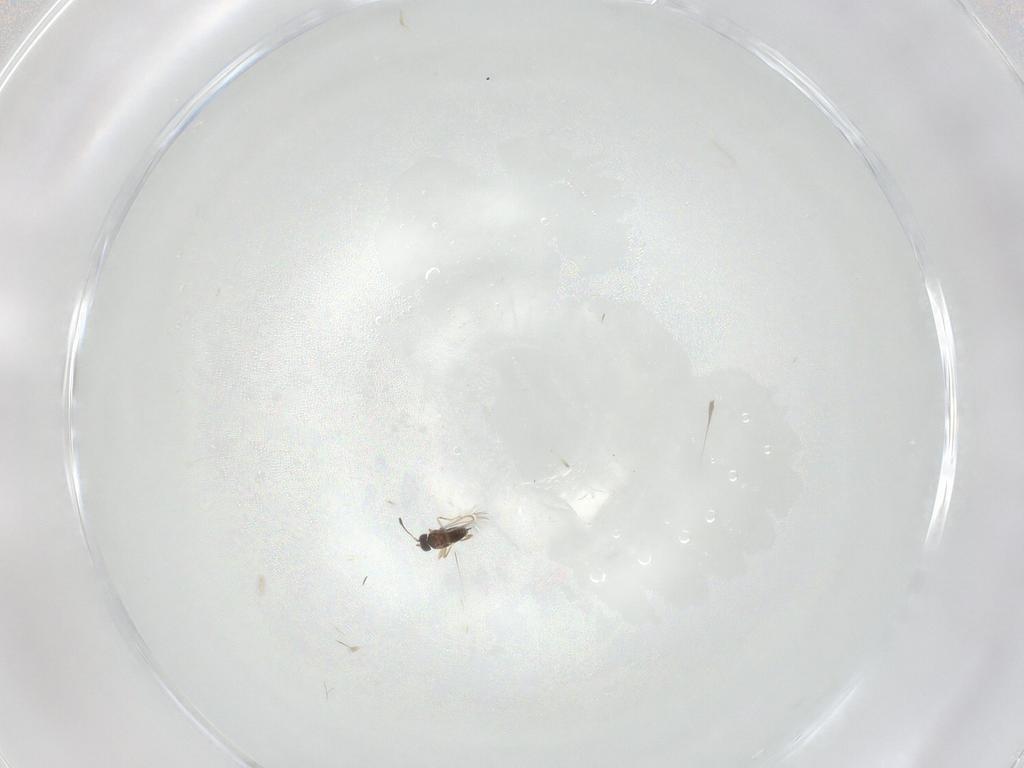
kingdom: Animalia
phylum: Arthropoda
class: Insecta
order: Hymenoptera
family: Mymaridae
